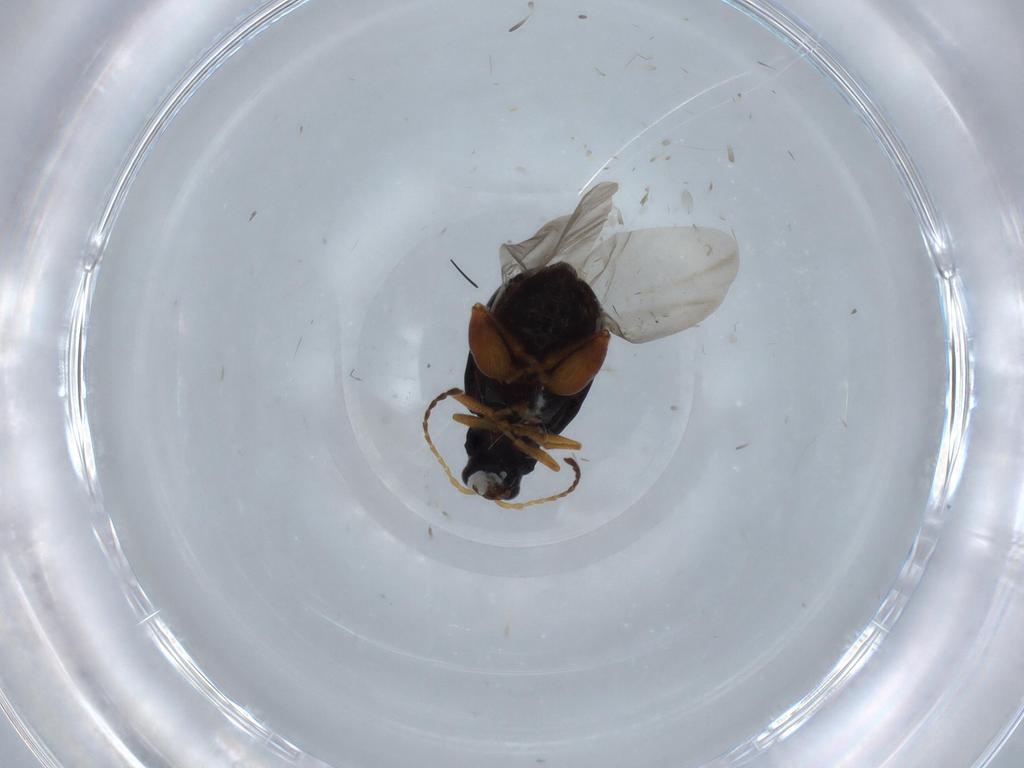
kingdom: Animalia
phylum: Arthropoda
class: Insecta
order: Coleoptera
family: Chrysomelidae
